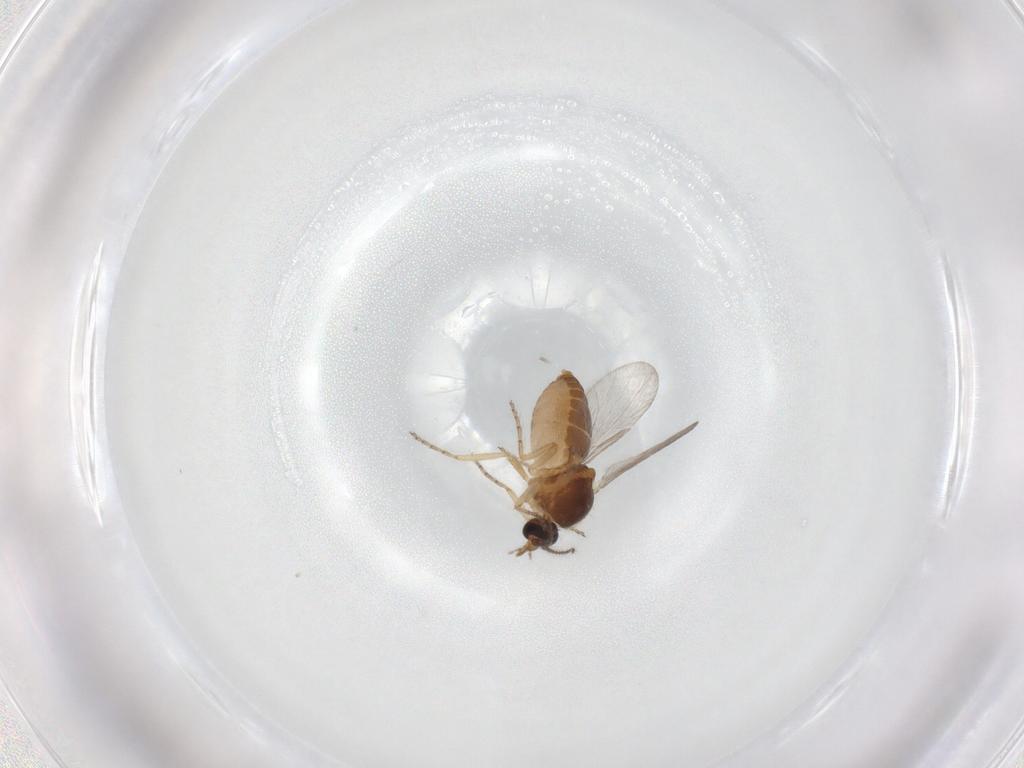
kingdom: Animalia
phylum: Arthropoda
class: Insecta
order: Diptera
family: Ceratopogonidae
